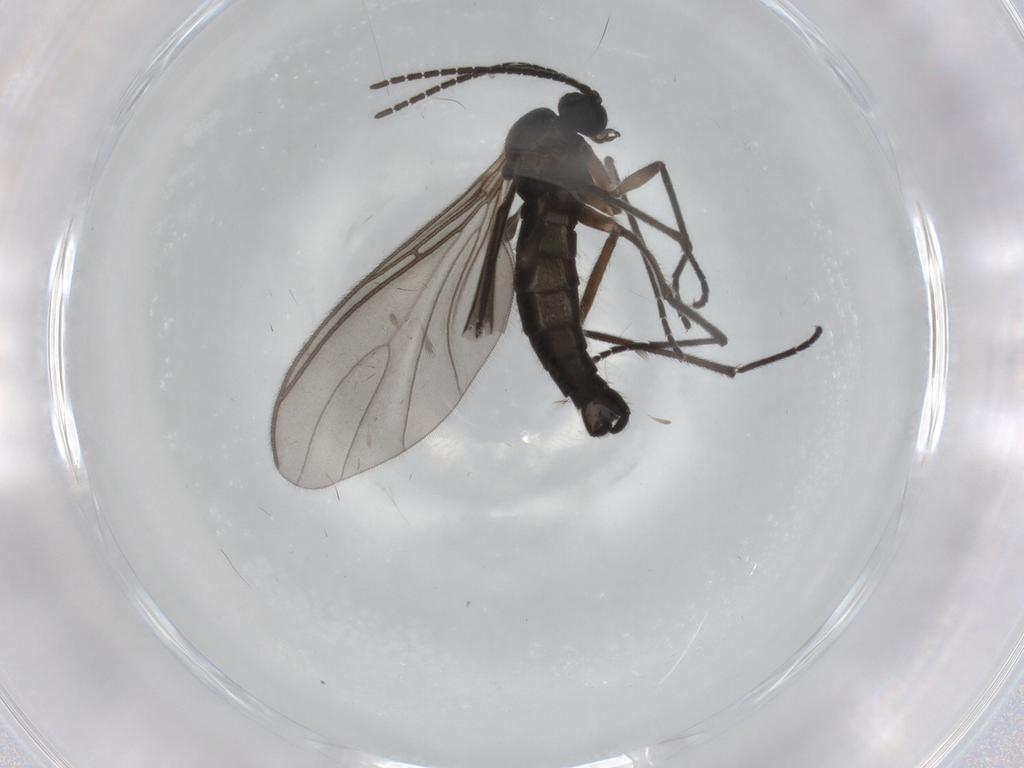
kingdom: Animalia
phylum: Arthropoda
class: Insecta
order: Diptera
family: Sciaridae
